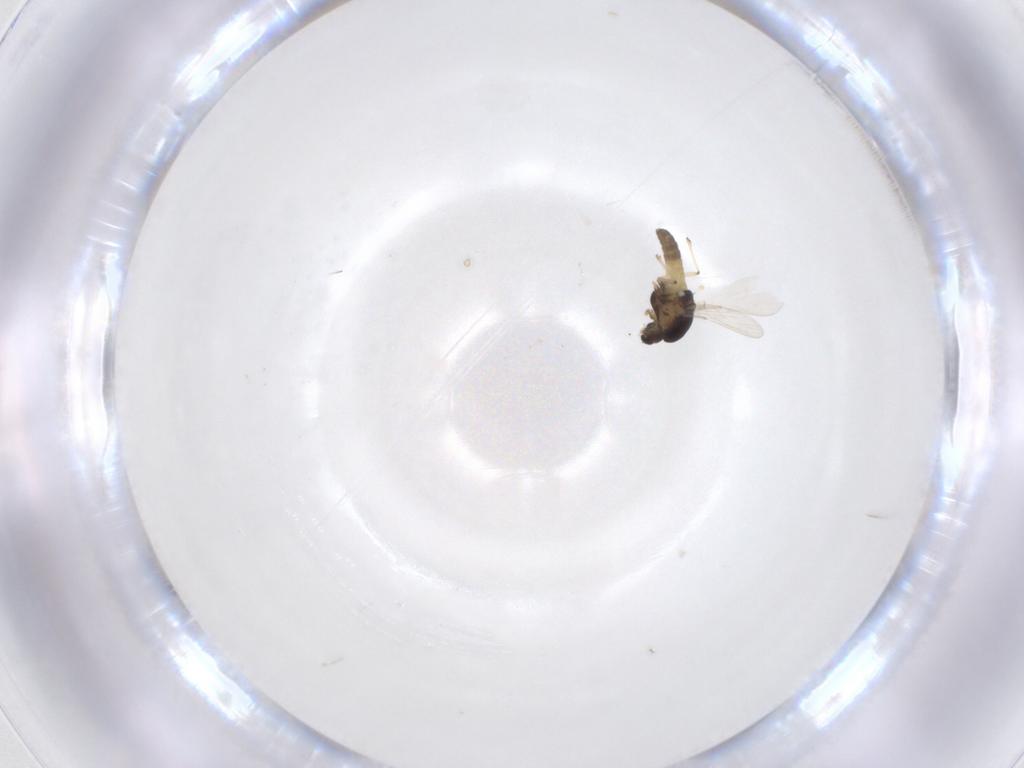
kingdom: Animalia
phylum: Arthropoda
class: Insecta
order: Diptera
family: Chironomidae
